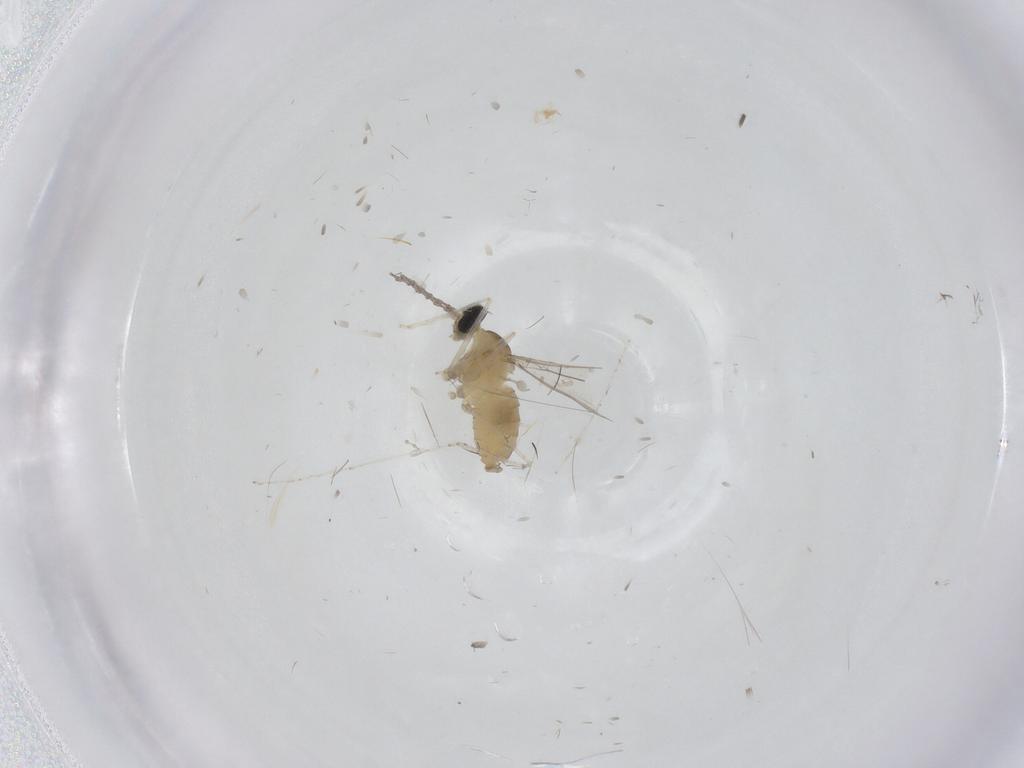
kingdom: Animalia
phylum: Arthropoda
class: Insecta
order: Diptera
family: Cecidomyiidae
